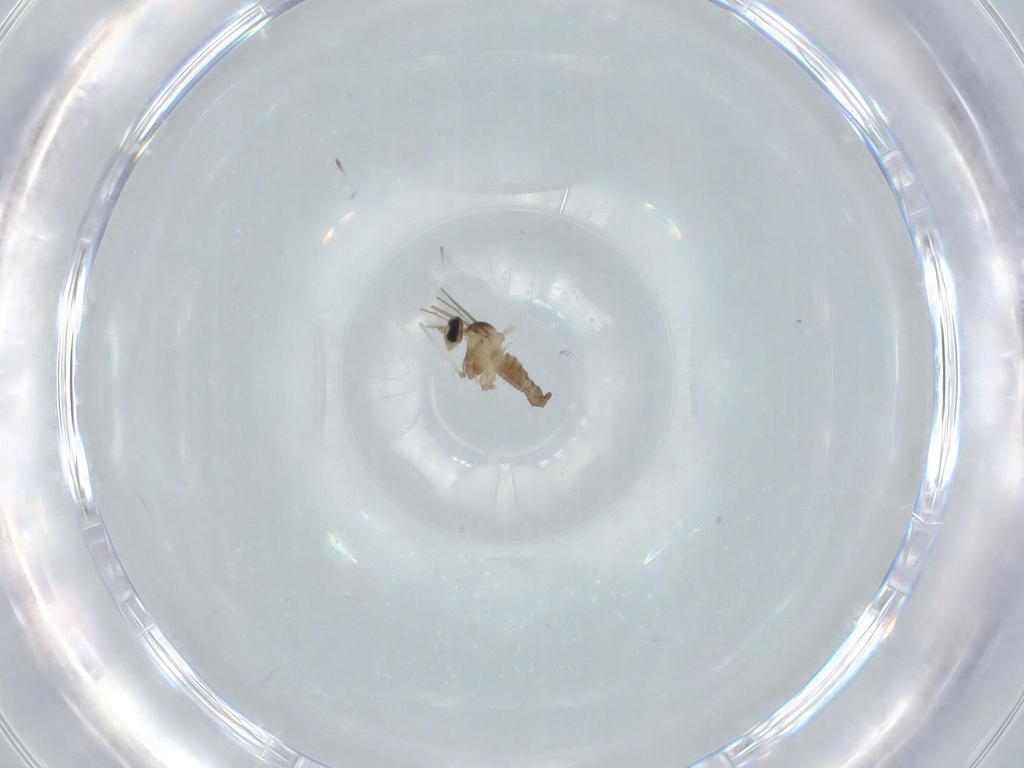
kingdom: Animalia
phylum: Arthropoda
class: Insecta
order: Diptera
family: Cecidomyiidae
